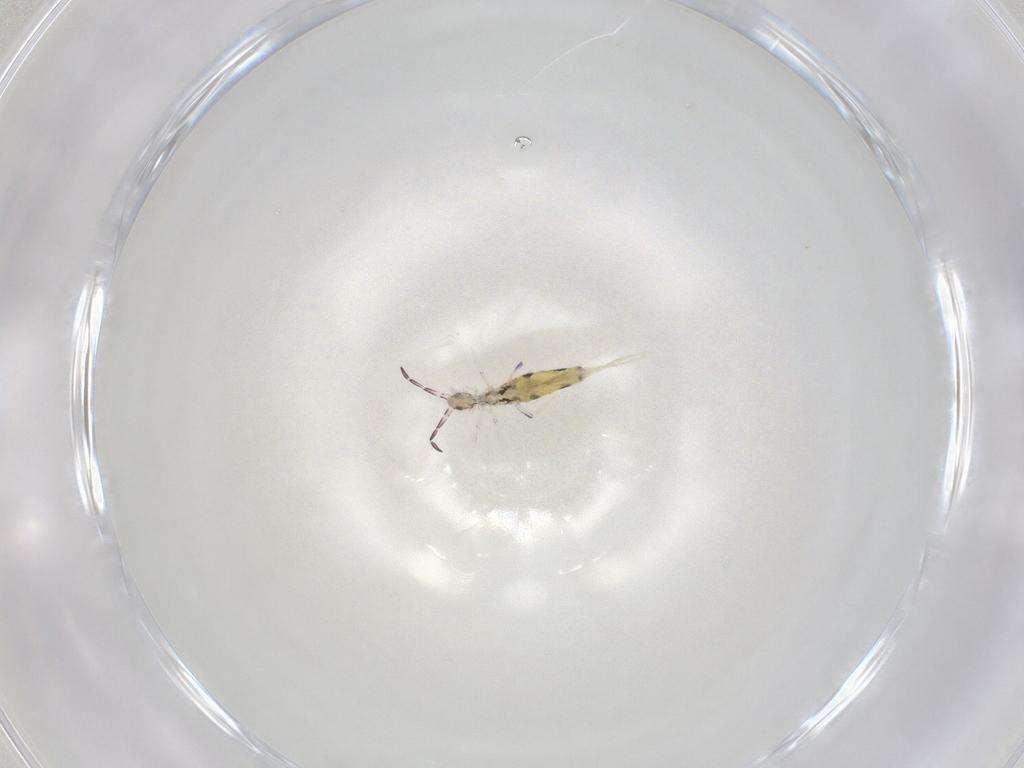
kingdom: Animalia
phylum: Arthropoda
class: Collembola
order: Entomobryomorpha
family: Entomobryidae
